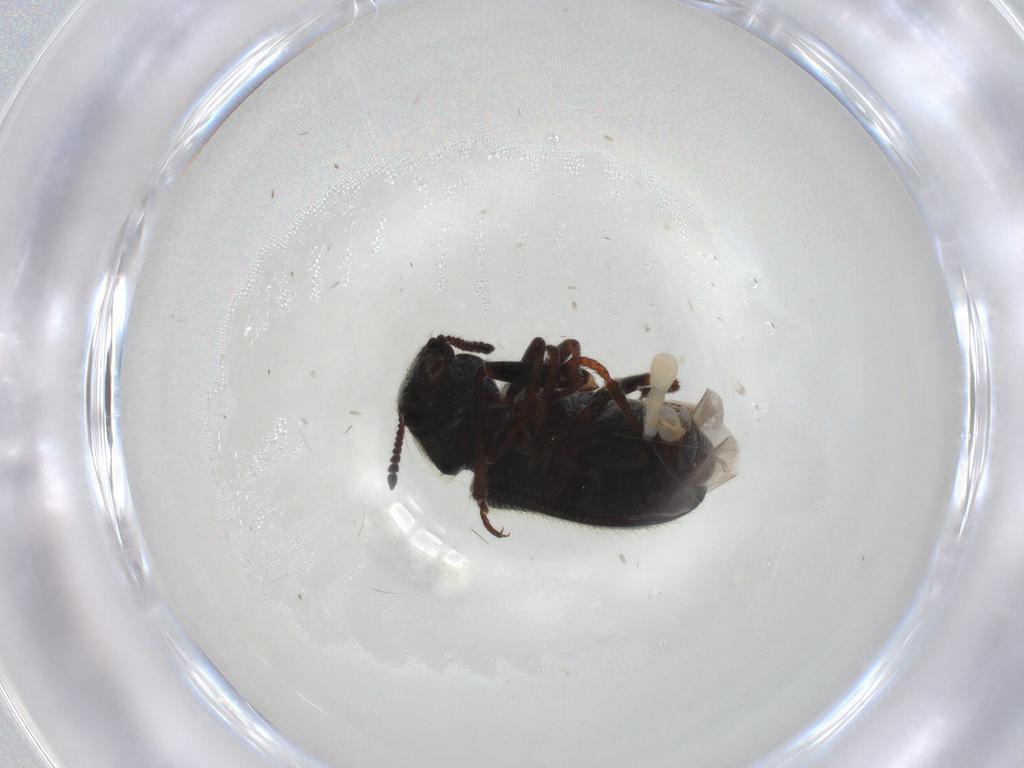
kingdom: Animalia
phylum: Arthropoda
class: Insecta
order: Coleoptera
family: Melyridae
